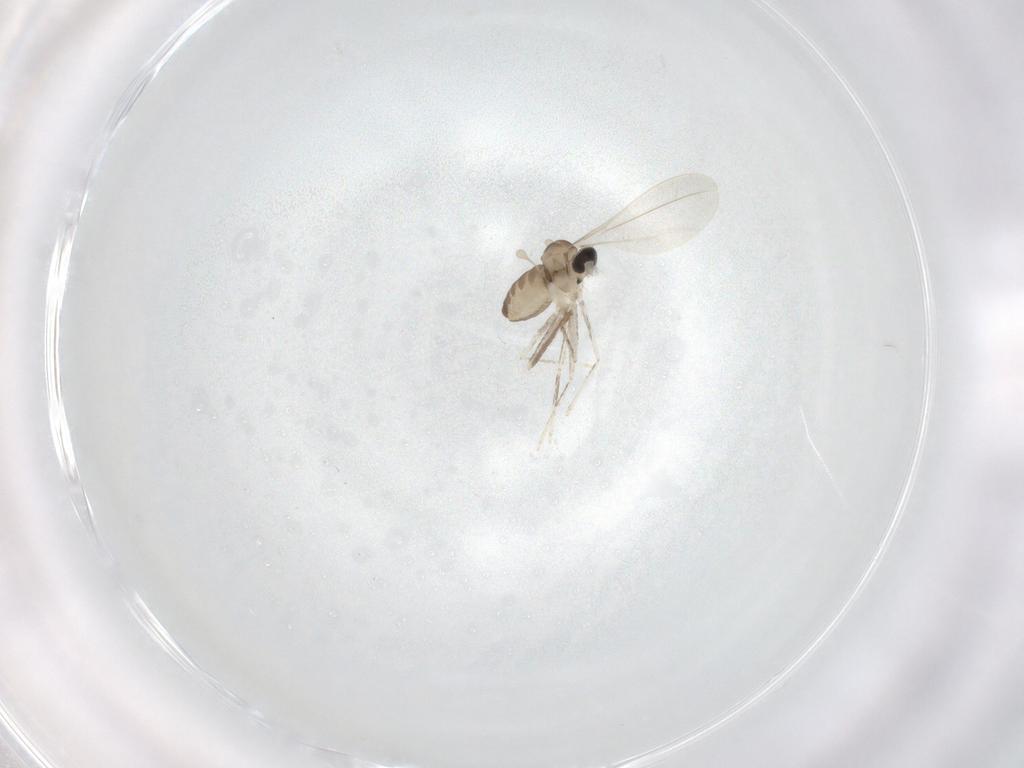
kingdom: Animalia
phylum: Arthropoda
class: Insecta
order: Diptera
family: Cecidomyiidae
